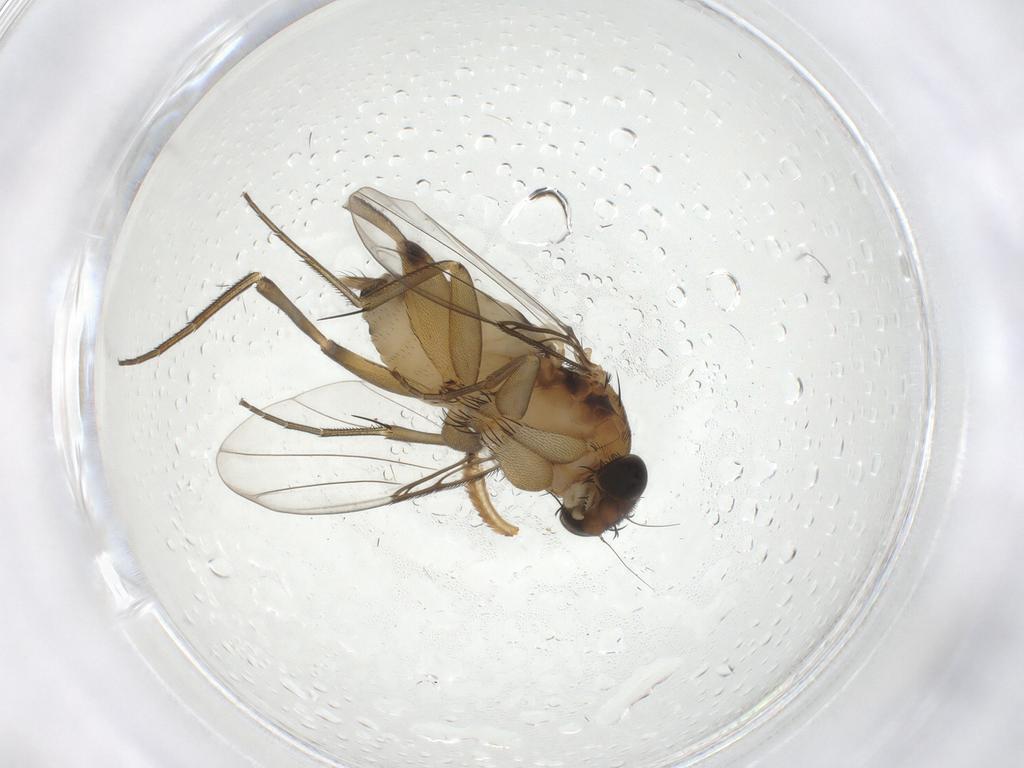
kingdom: Animalia
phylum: Arthropoda
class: Insecta
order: Diptera
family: Phoridae
